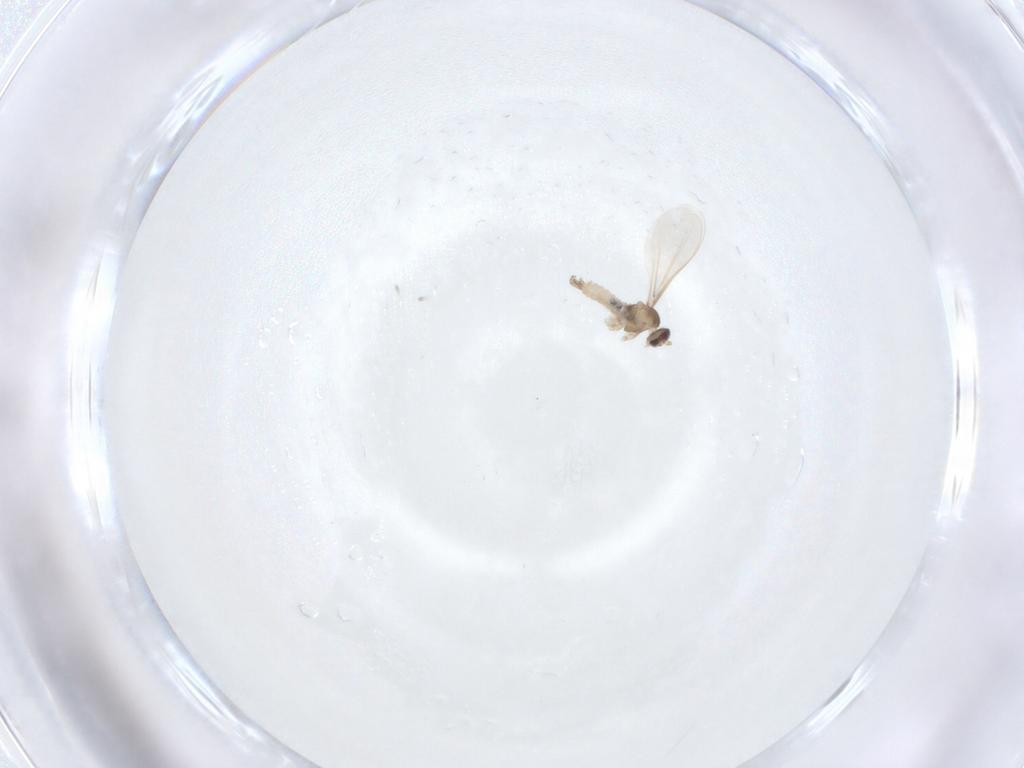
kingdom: Animalia
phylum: Arthropoda
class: Insecta
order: Diptera
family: Cecidomyiidae
